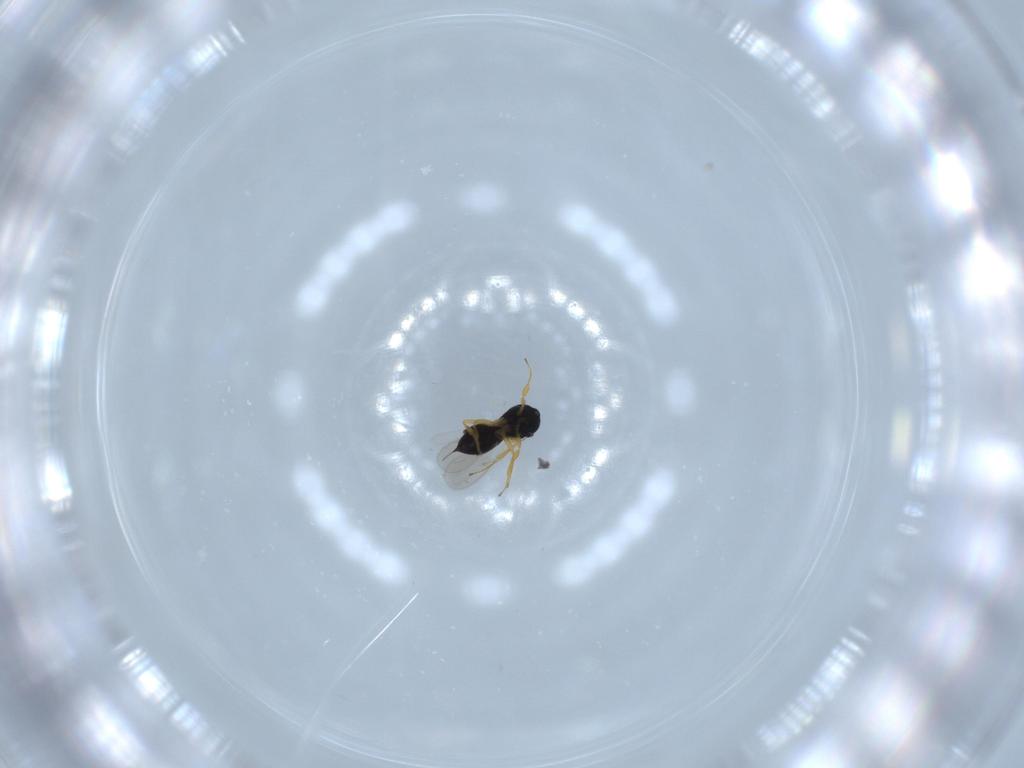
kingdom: Animalia
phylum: Arthropoda
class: Insecta
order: Hymenoptera
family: Scelionidae
